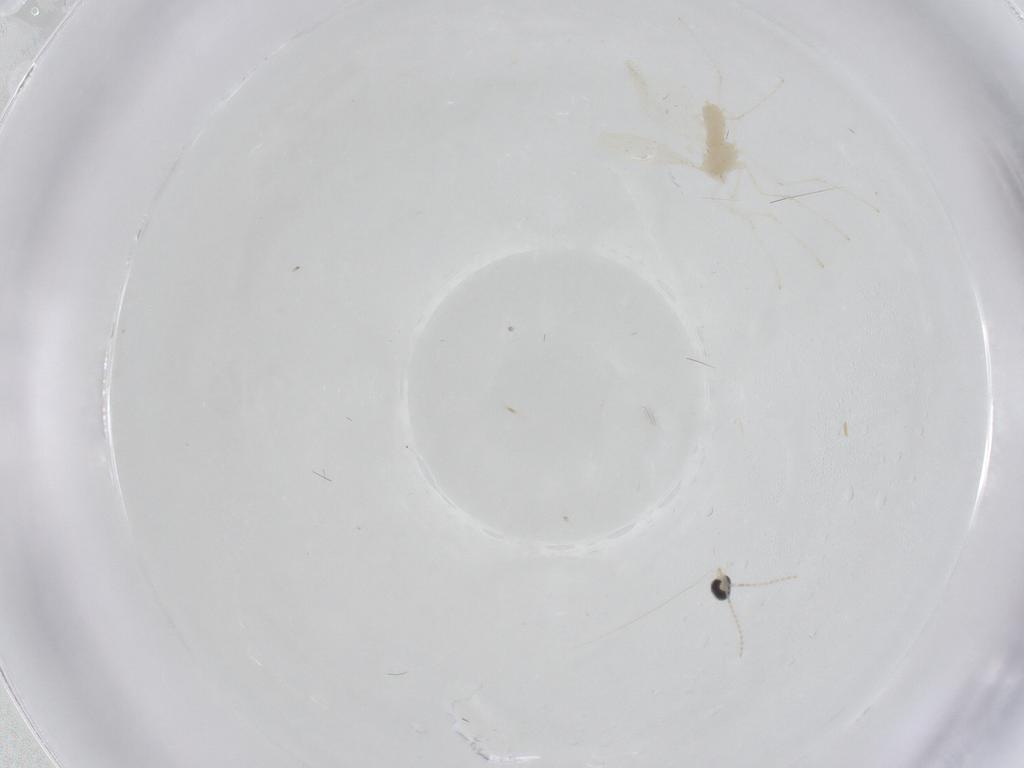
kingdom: Animalia
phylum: Arthropoda
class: Insecta
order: Diptera
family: Cecidomyiidae
